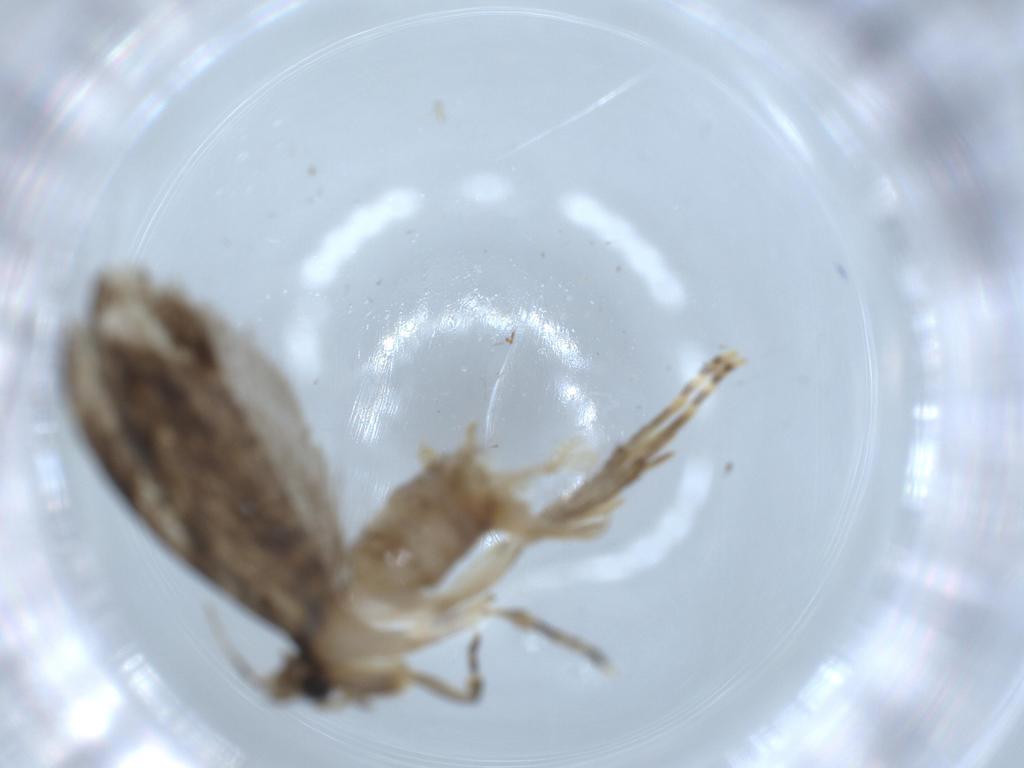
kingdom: Animalia
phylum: Arthropoda
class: Insecta
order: Lepidoptera
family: Tineidae
